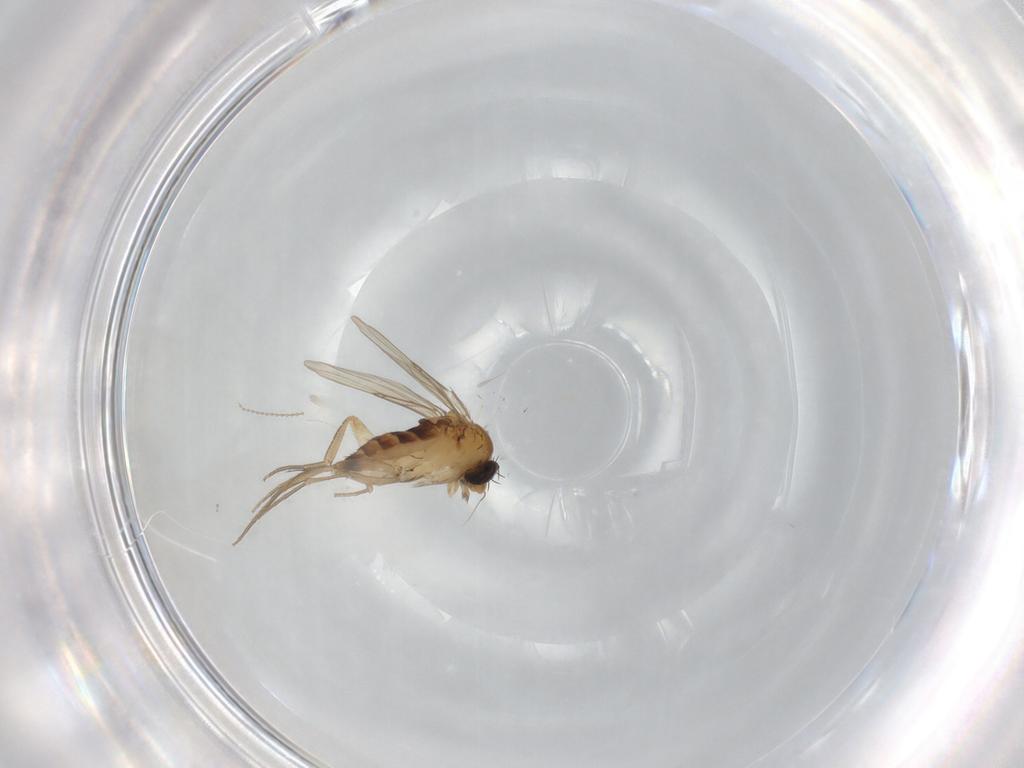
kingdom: Animalia
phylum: Arthropoda
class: Insecta
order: Diptera
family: Phoridae
